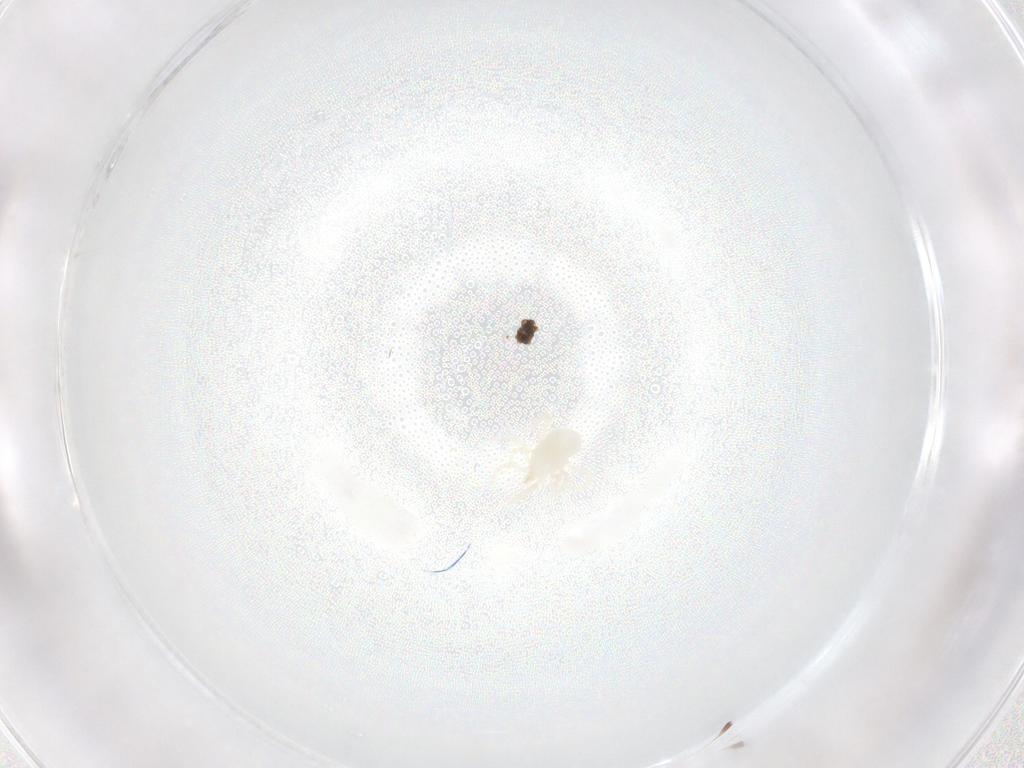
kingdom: Animalia
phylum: Arthropoda
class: Arachnida
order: Mesostigmata
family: Melicharidae
